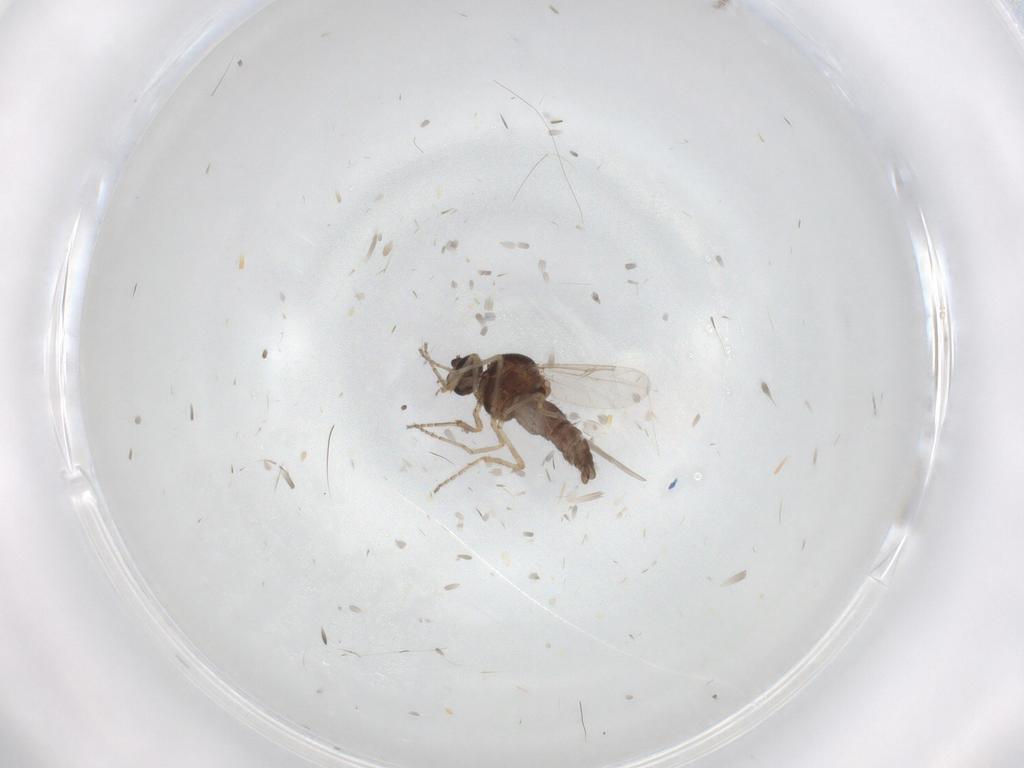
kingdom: Animalia
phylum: Arthropoda
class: Insecta
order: Diptera
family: Ceratopogonidae
